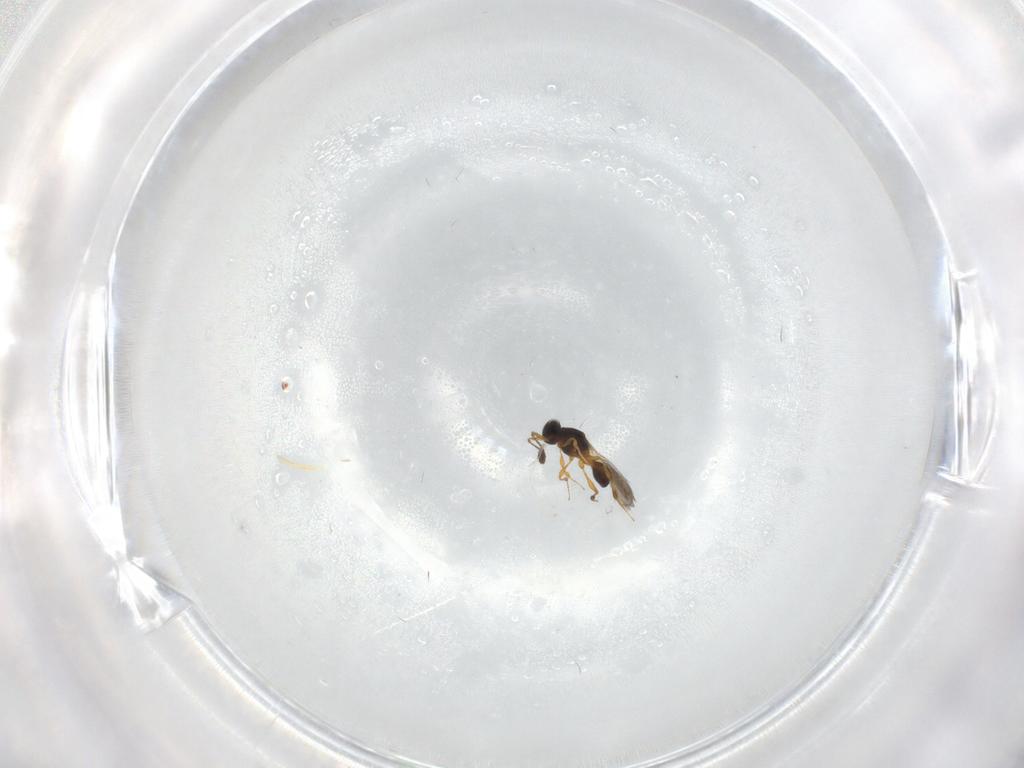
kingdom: Animalia
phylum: Arthropoda
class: Insecta
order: Hymenoptera
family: Platygastridae
